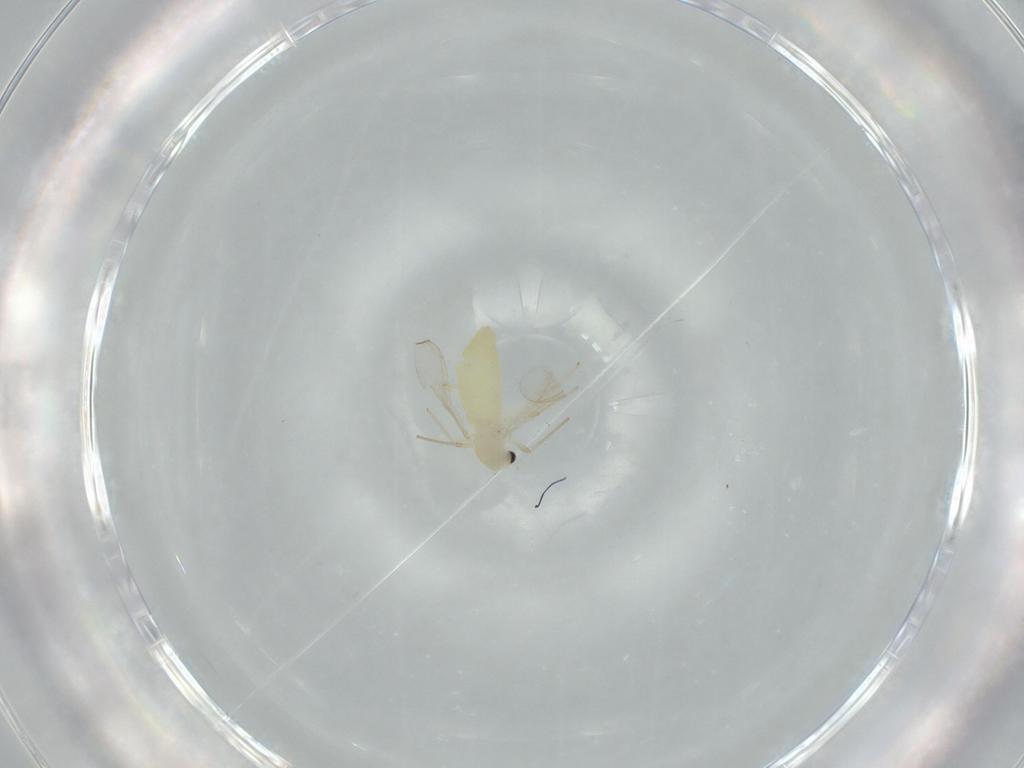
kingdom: Animalia
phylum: Arthropoda
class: Insecta
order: Diptera
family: Chironomidae
